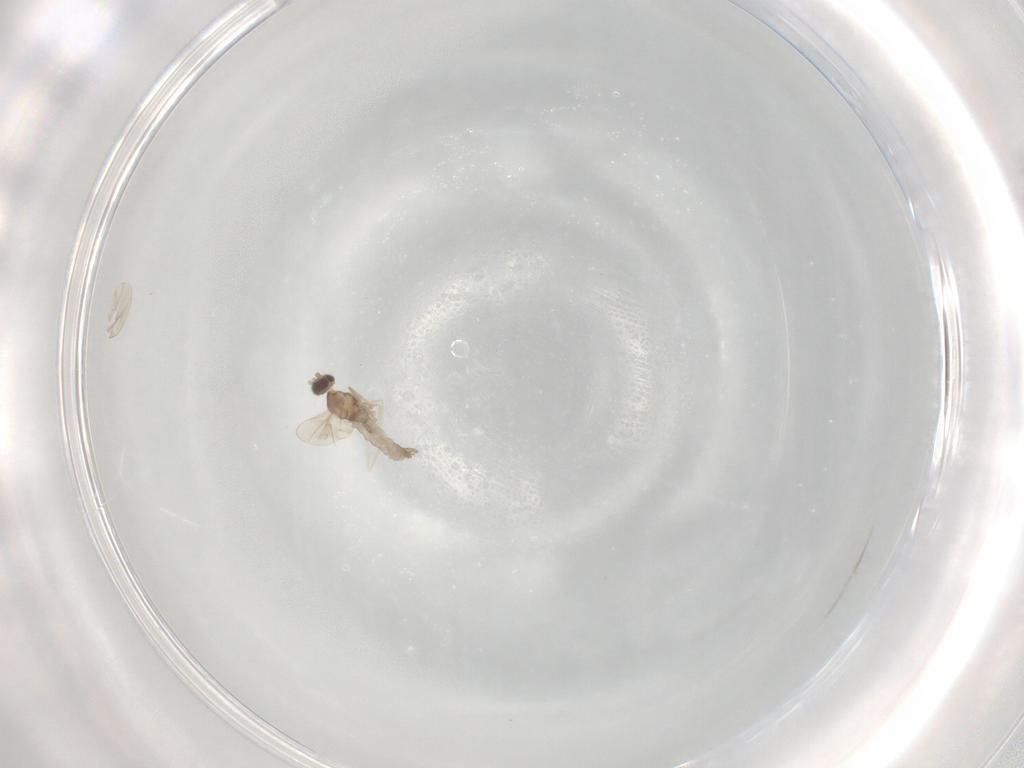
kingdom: Animalia
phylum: Arthropoda
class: Insecta
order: Diptera
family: Cecidomyiidae
